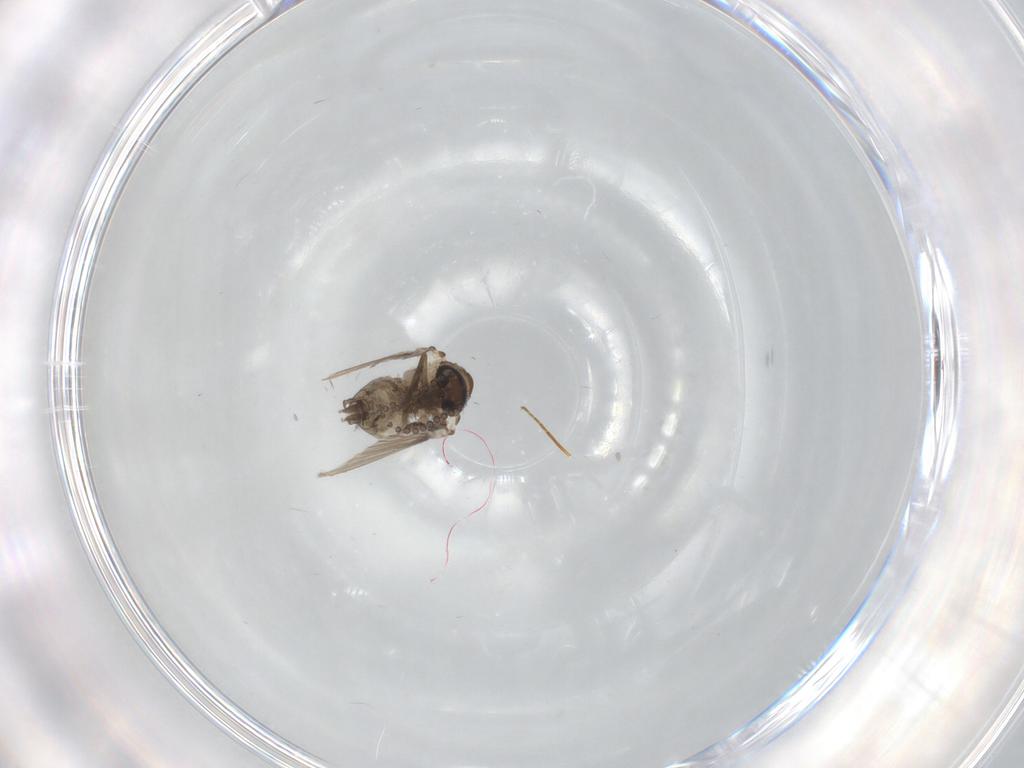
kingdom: Animalia
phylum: Arthropoda
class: Insecta
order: Diptera
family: Psychodidae
